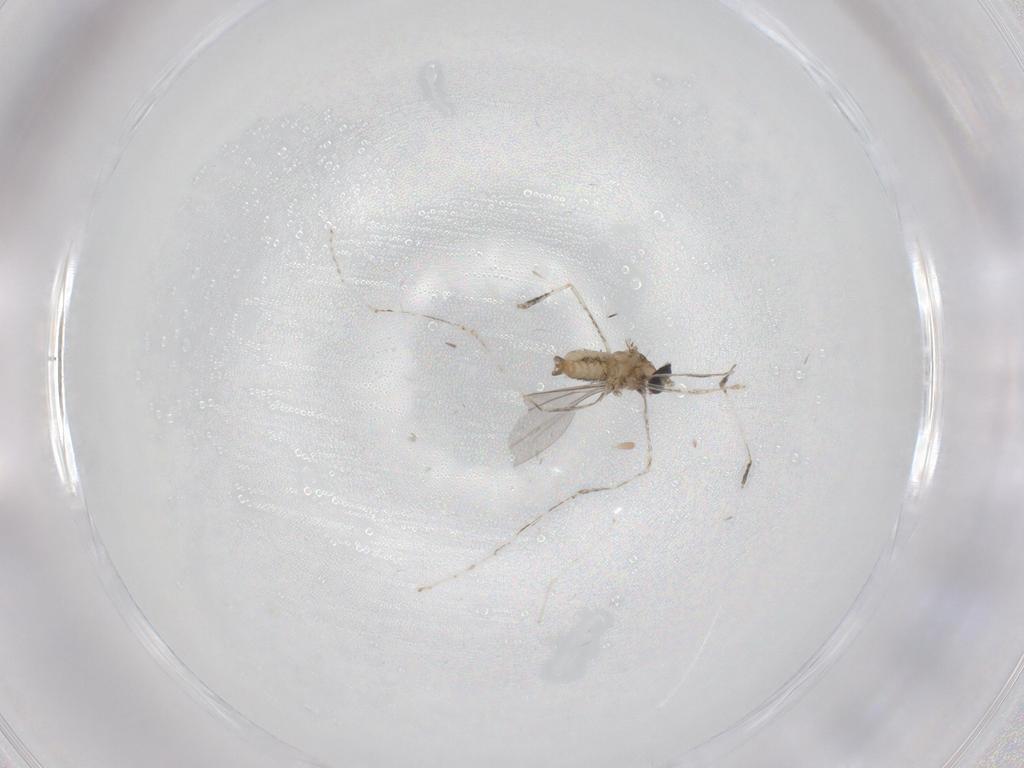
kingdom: Animalia
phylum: Arthropoda
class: Insecta
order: Diptera
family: Cecidomyiidae
